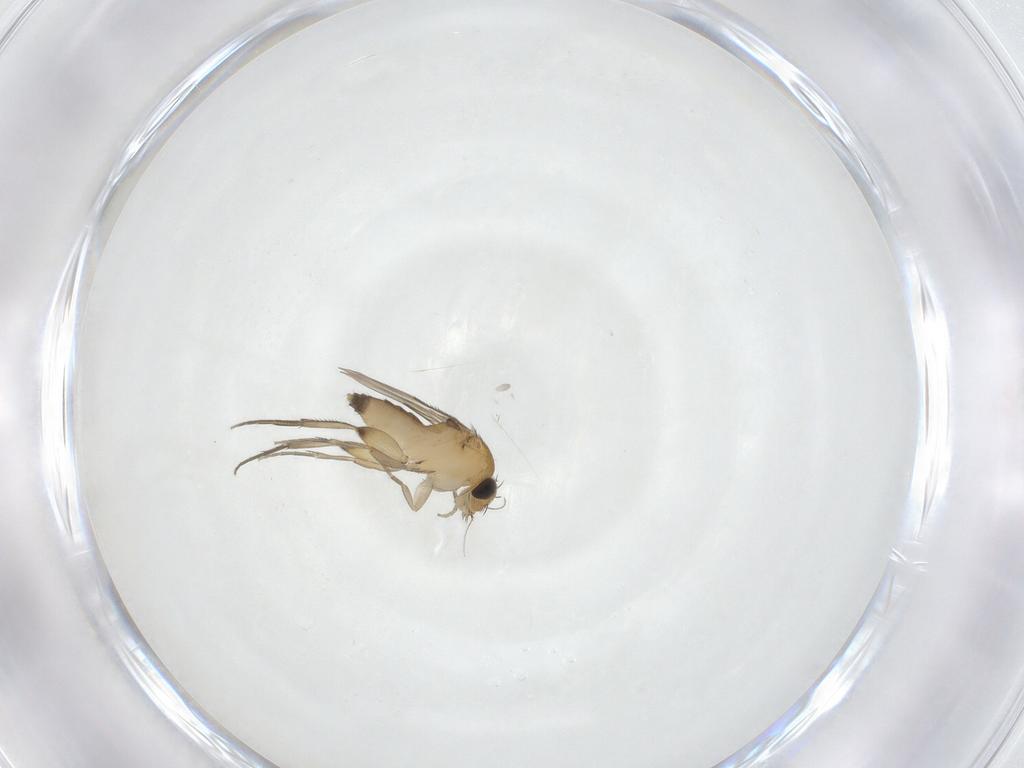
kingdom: Animalia
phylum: Arthropoda
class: Insecta
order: Diptera
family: Phoridae
